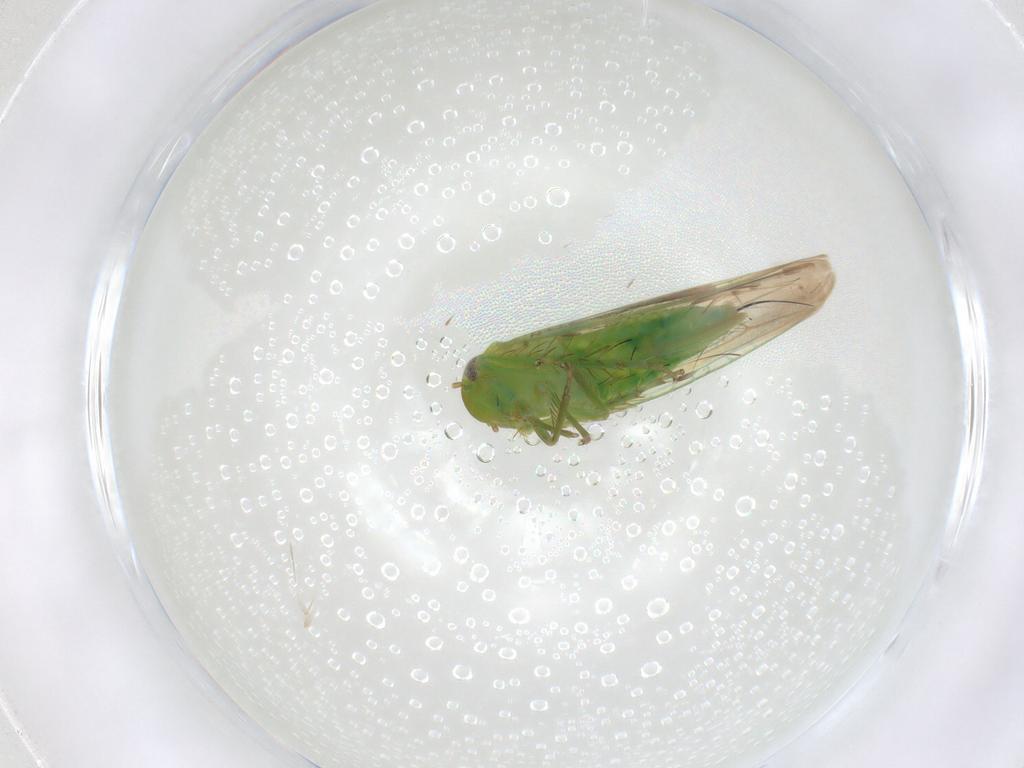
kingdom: Animalia
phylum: Arthropoda
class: Insecta
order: Hemiptera
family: Cicadellidae
